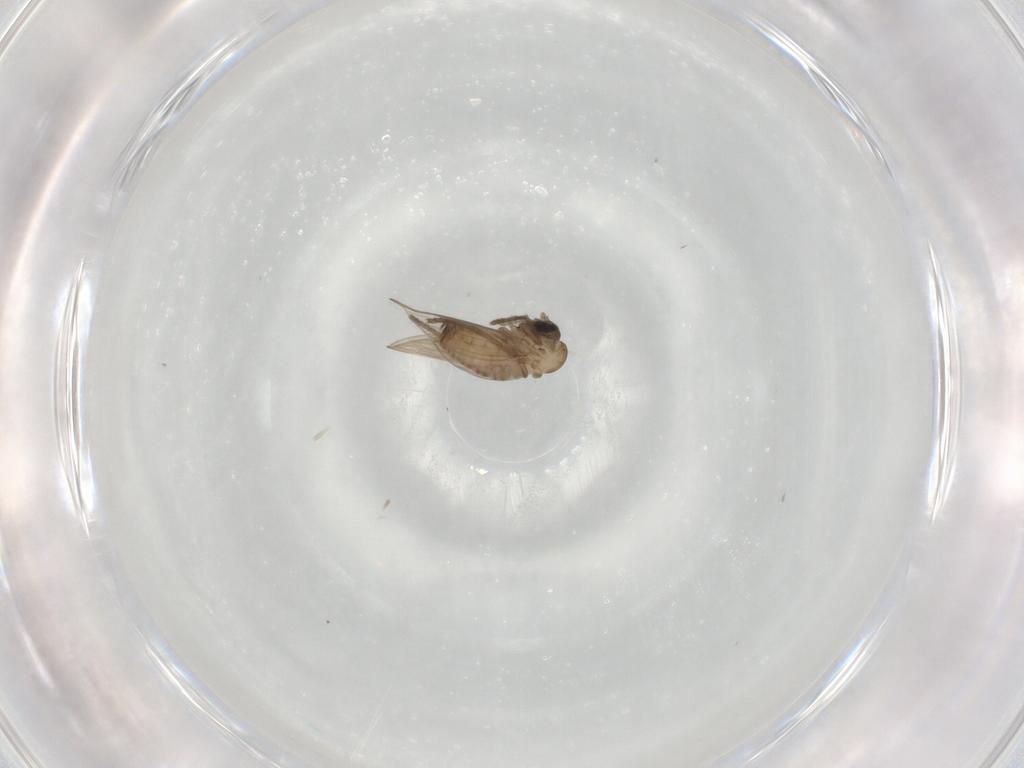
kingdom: Animalia
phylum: Arthropoda
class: Insecta
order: Diptera
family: Psychodidae
